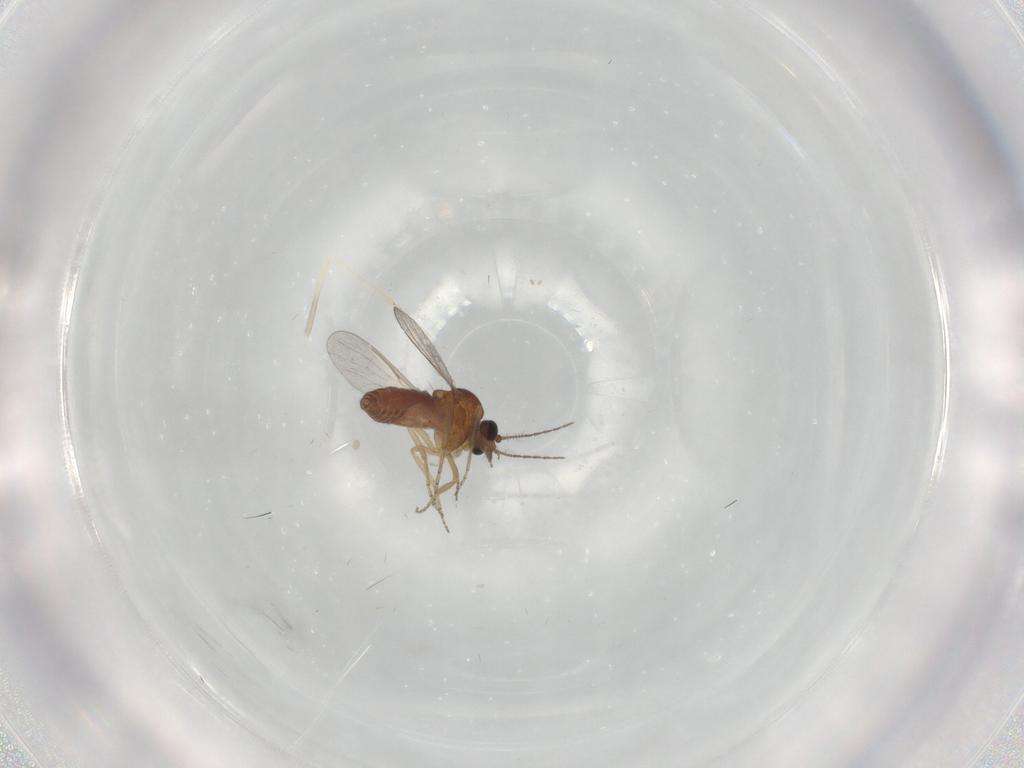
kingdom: Animalia
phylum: Arthropoda
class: Insecta
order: Diptera
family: Ceratopogonidae
